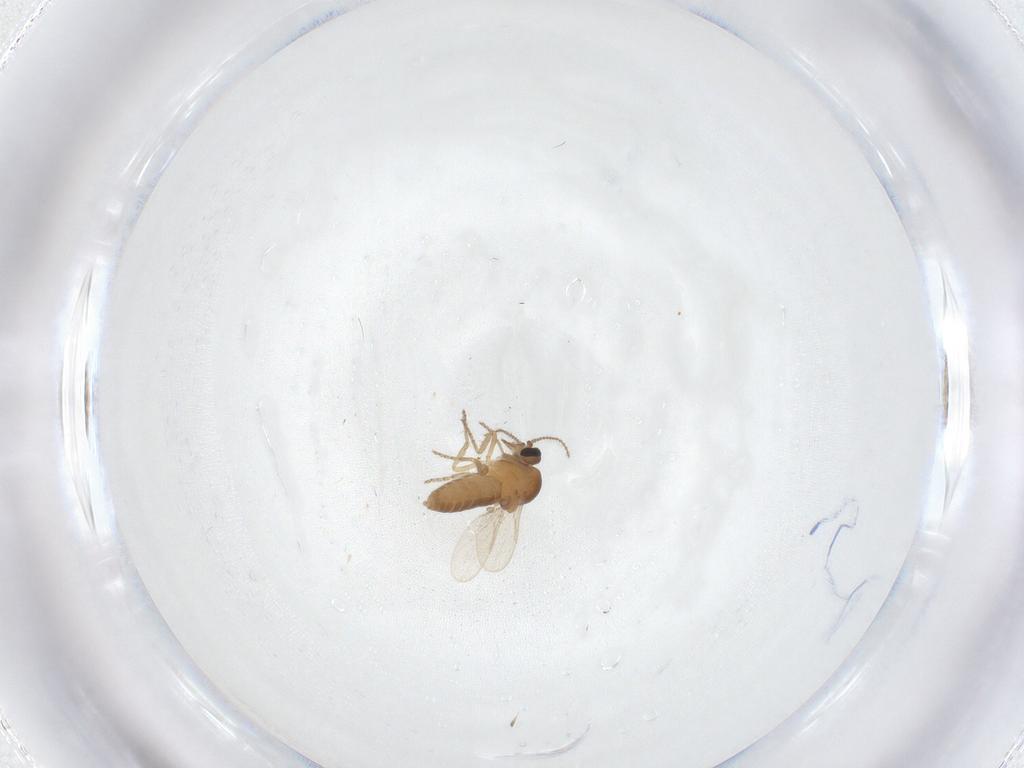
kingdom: Animalia
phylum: Arthropoda
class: Insecta
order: Diptera
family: Ceratopogonidae
